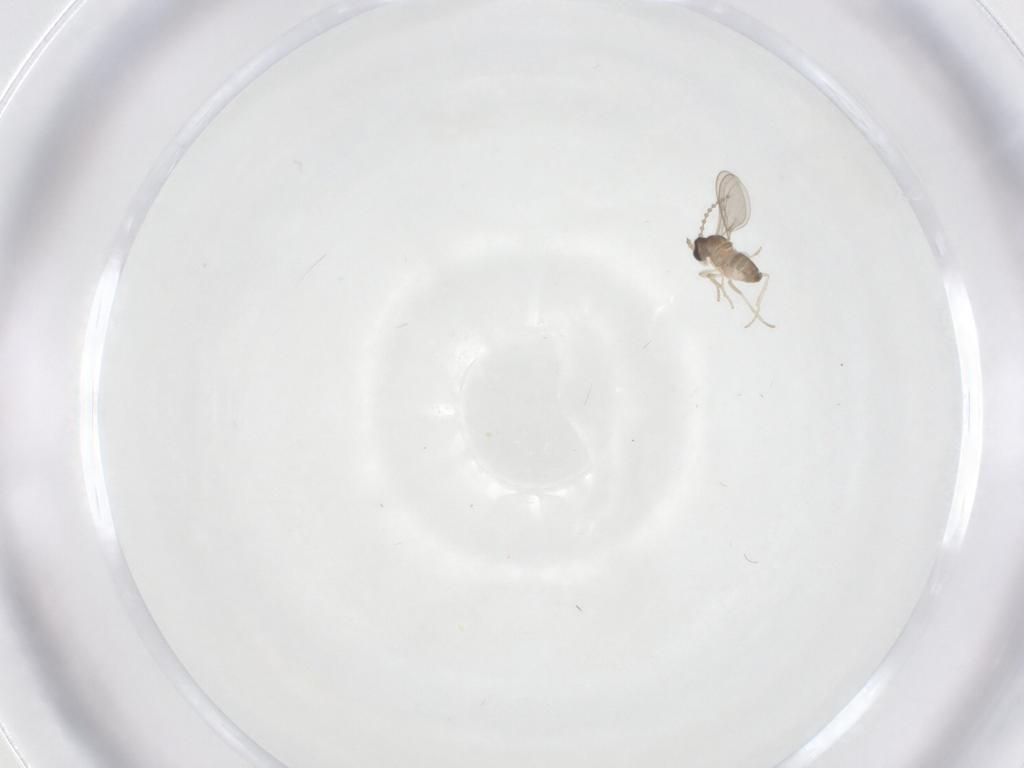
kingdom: Animalia
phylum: Arthropoda
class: Insecta
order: Diptera
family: Cecidomyiidae
